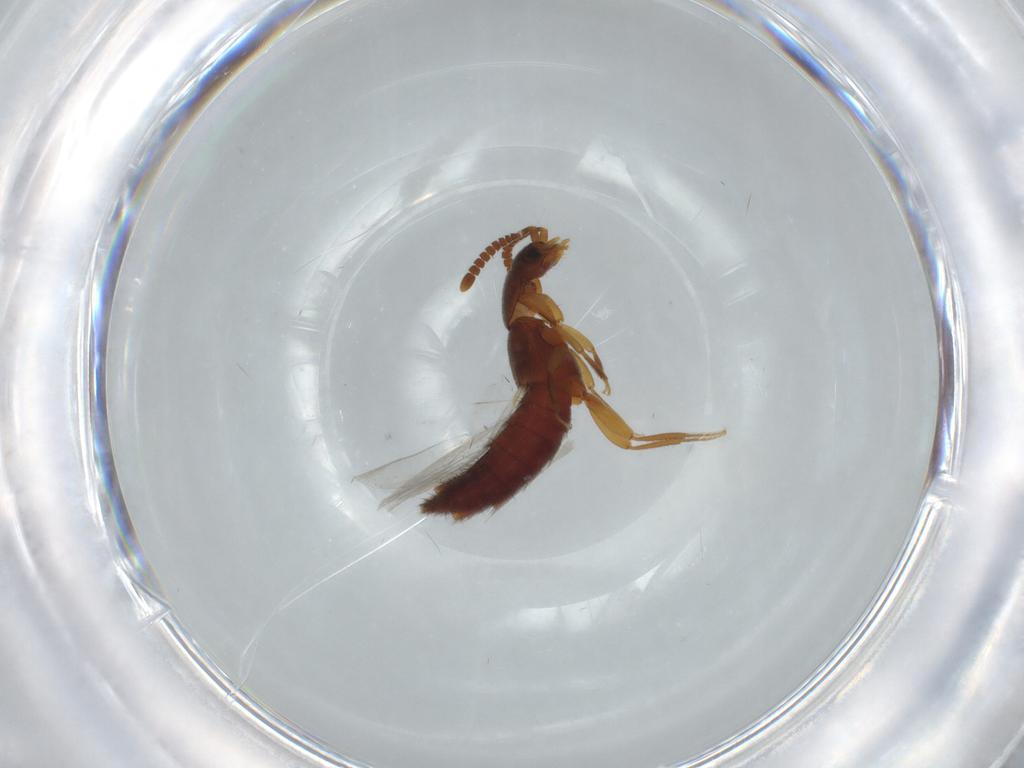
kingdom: Animalia
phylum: Arthropoda
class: Insecta
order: Coleoptera
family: Staphylinidae
